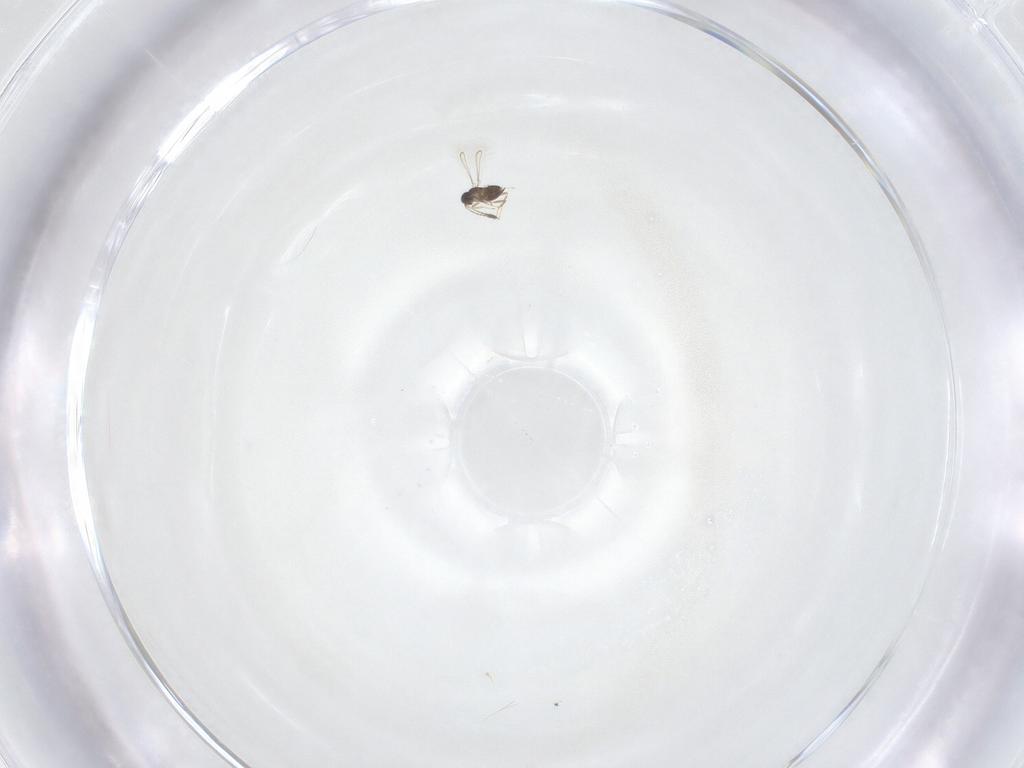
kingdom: Animalia
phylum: Arthropoda
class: Insecta
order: Hymenoptera
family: Mymaridae
